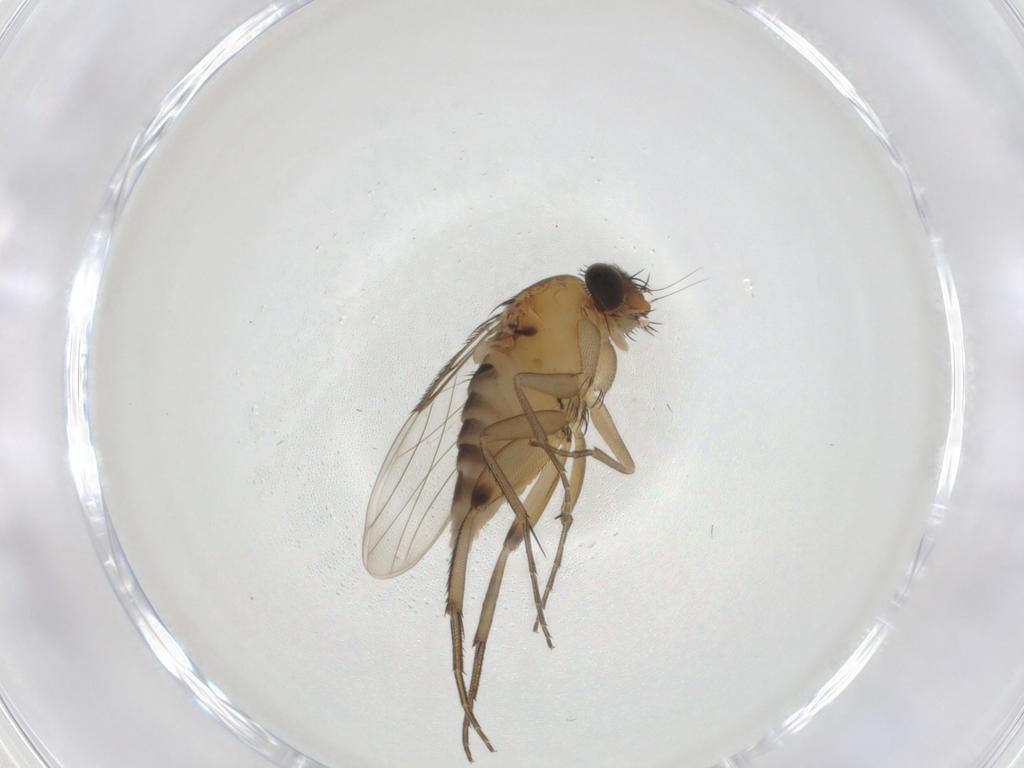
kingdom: Animalia
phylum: Arthropoda
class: Insecta
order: Diptera
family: Phoridae
